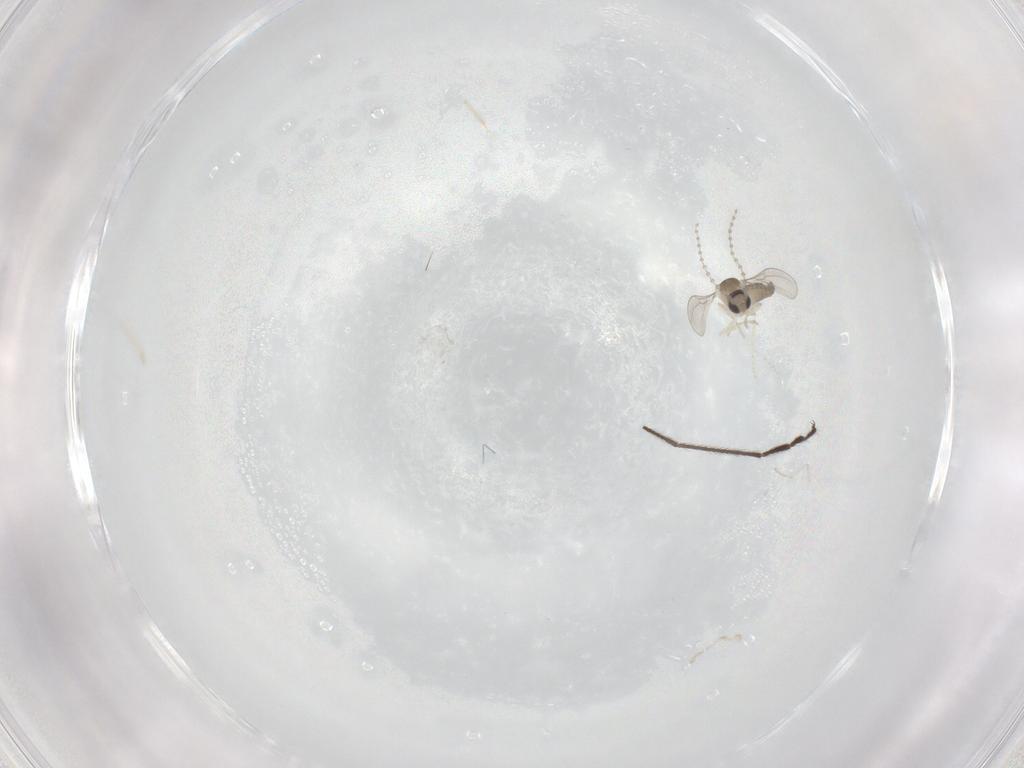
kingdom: Animalia
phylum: Arthropoda
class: Insecta
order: Diptera
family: Cecidomyiidae
